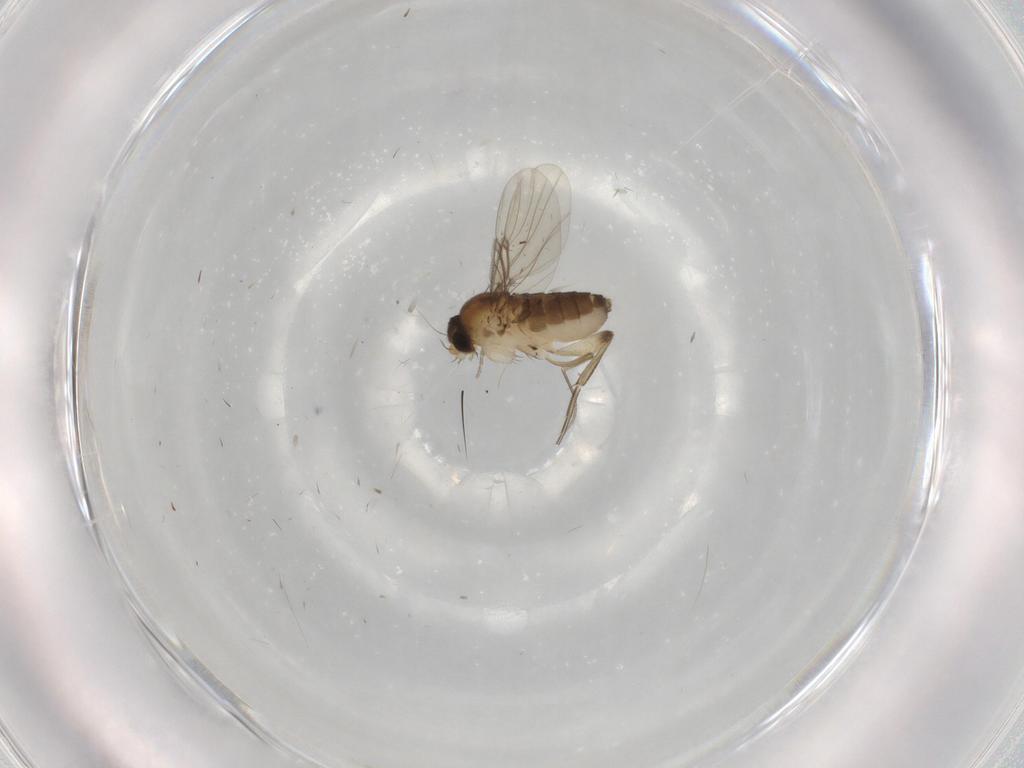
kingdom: Animalia
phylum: Arthropoda
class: Insecta
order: Diptera
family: Phoridae
